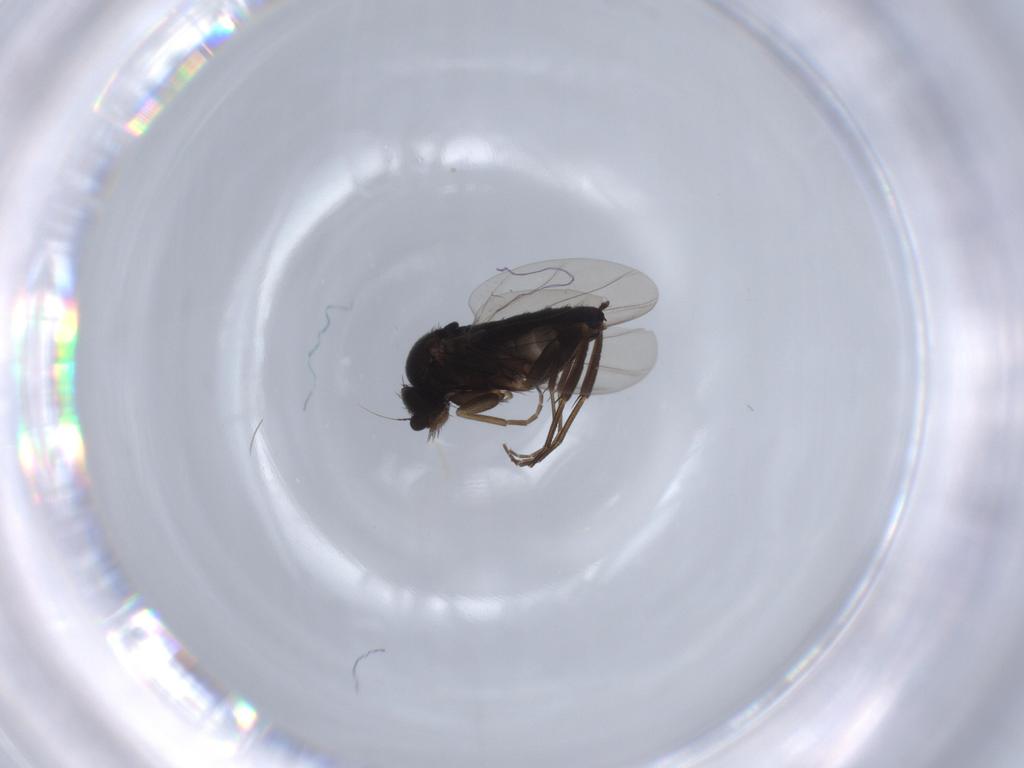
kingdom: Animalia
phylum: Arthropoda
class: Insecta
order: Diptera
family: Phoridae
